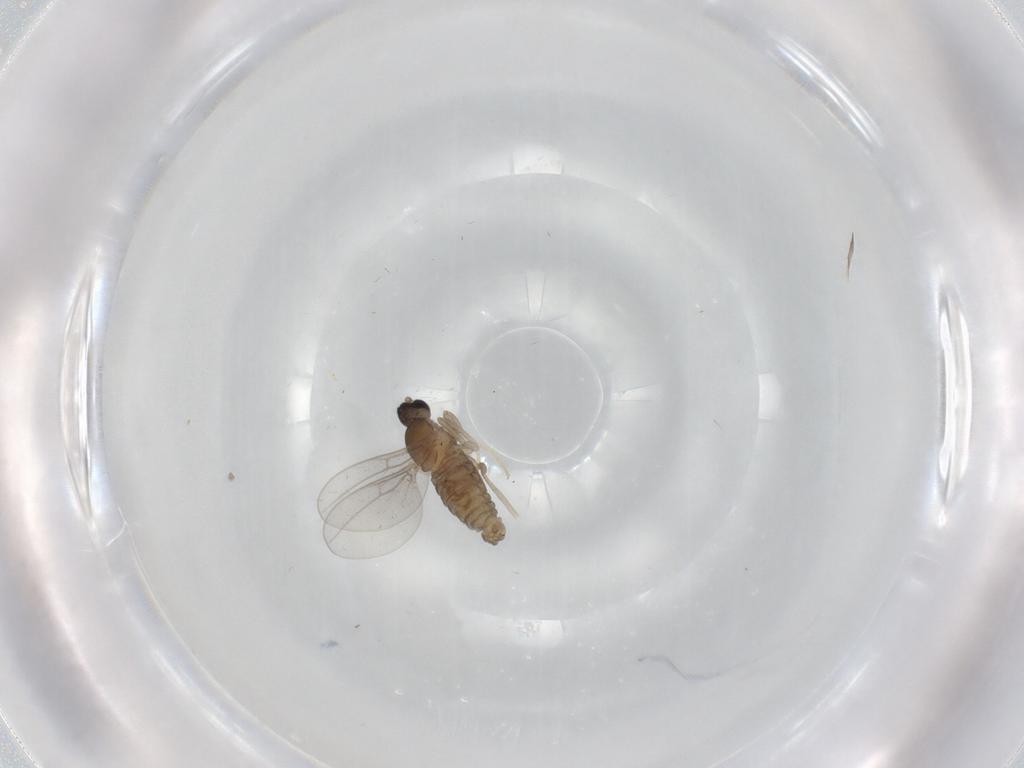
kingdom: Animalia
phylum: Arthropoda
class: Insecta
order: Diptera
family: Cecidomyiidae
